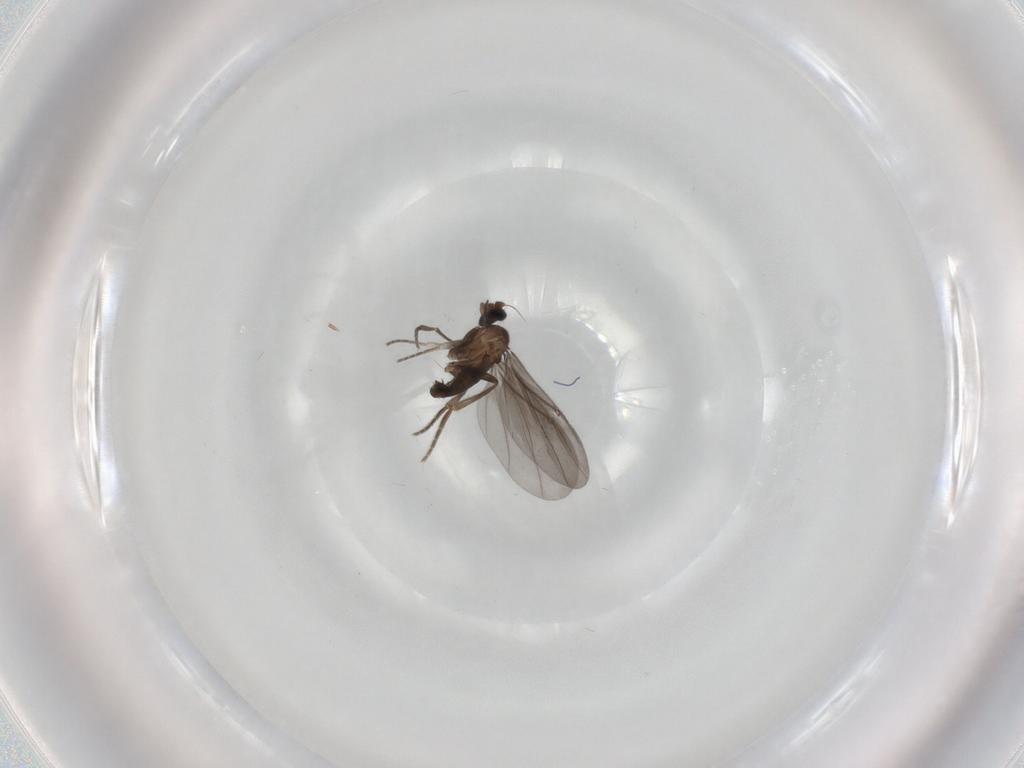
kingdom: Animalia
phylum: Arthropoda
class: Insecta
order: Diptera
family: Phoridae
